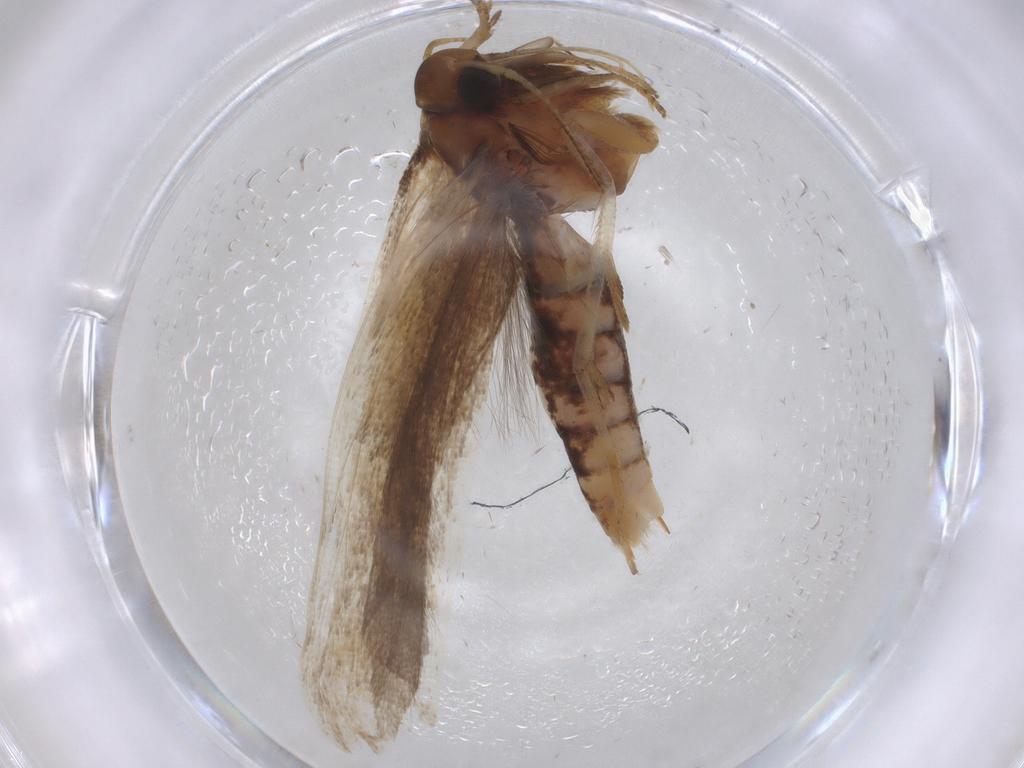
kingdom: Animalia
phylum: Arthropoda
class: Insecta
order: Lepidoptera
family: Gelechiidae
